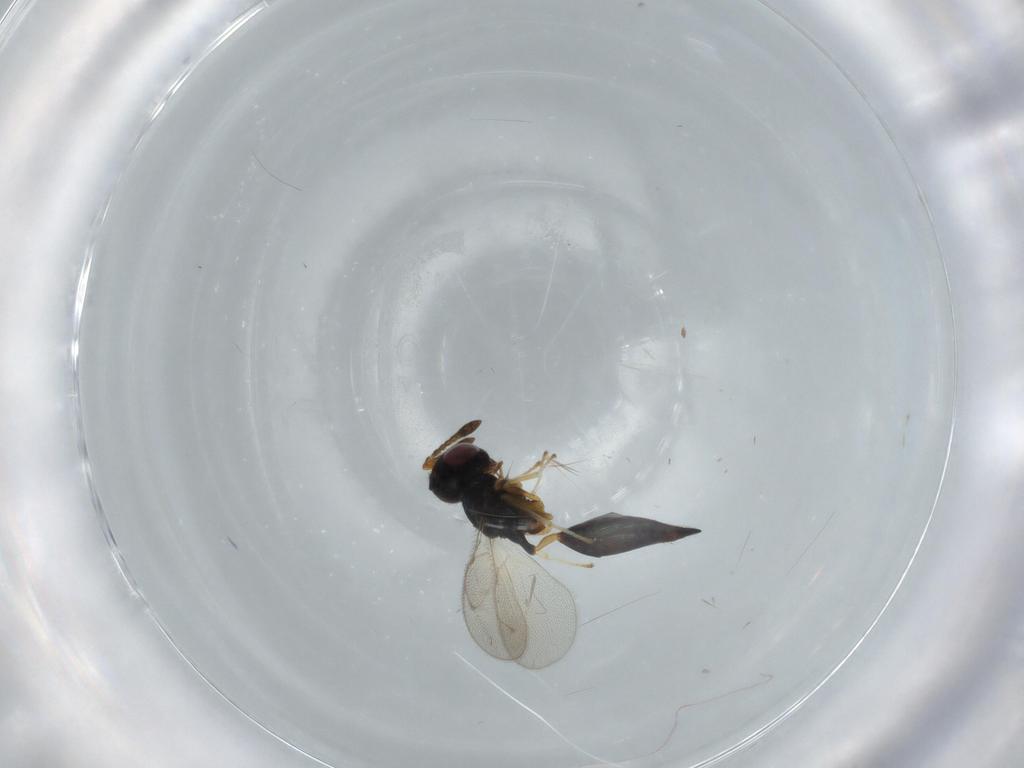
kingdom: Animalia
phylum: Arthropoda
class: Insecta
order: Hymenoptera
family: Pteromalidae
